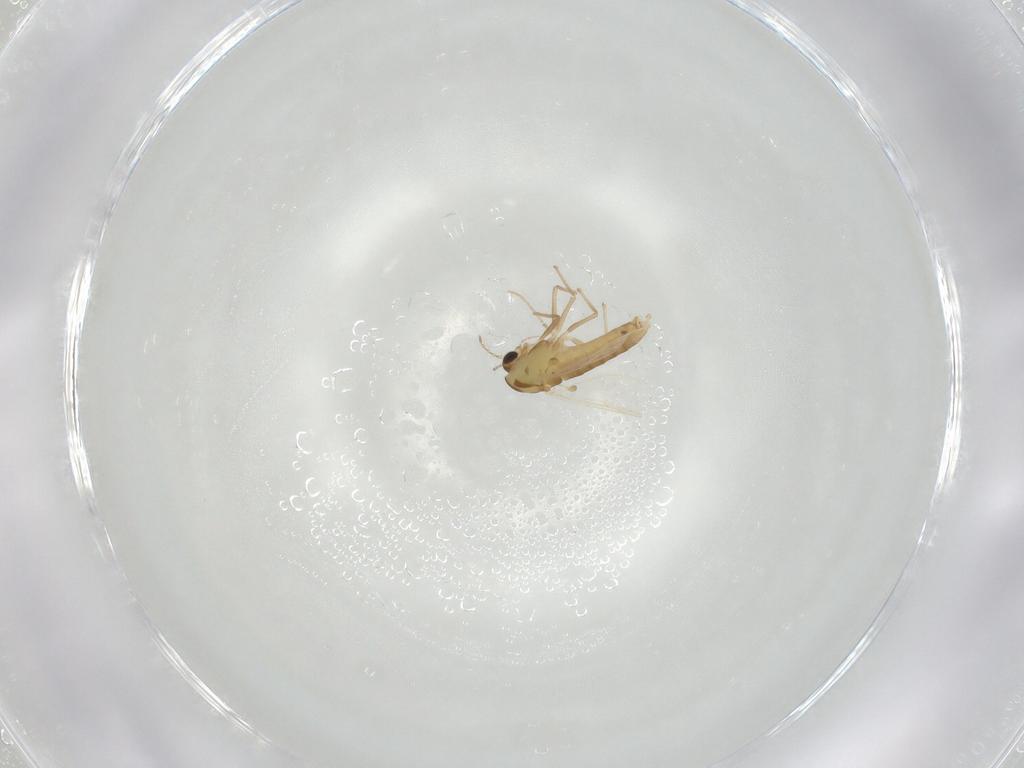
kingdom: Animalia
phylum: Arthropoda
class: Insecta
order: Diptera
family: Chironomidae
